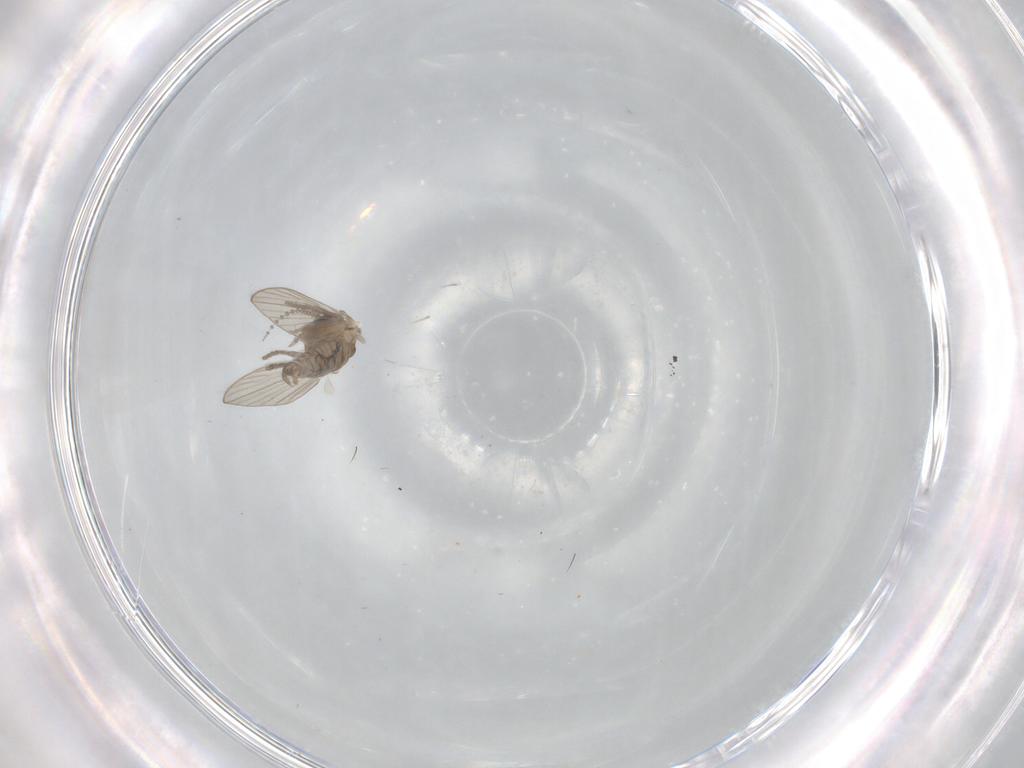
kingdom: Animalia
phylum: Arthropoda
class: Insecta
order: Diptera
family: Psychodidae
